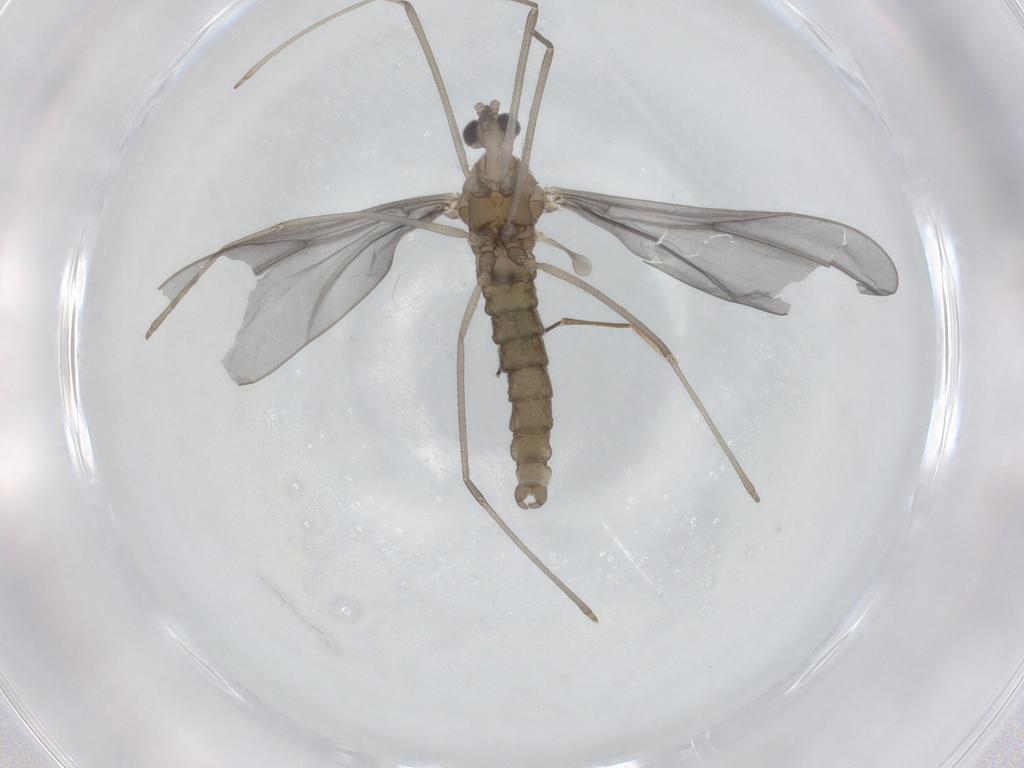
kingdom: Animalia
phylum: Arthropoda
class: Insecta
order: Diptera
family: Cecidomyiidae
